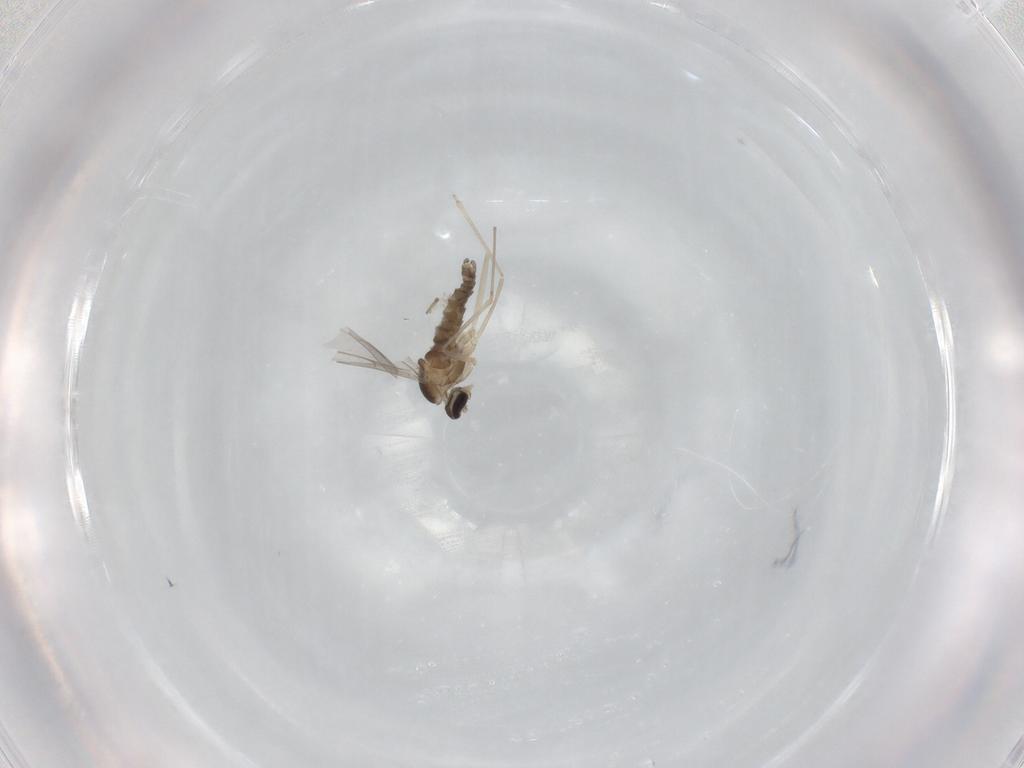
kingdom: Animalia
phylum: Arthropoda
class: Insecta
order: Diptera
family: Cecidomyiidae
